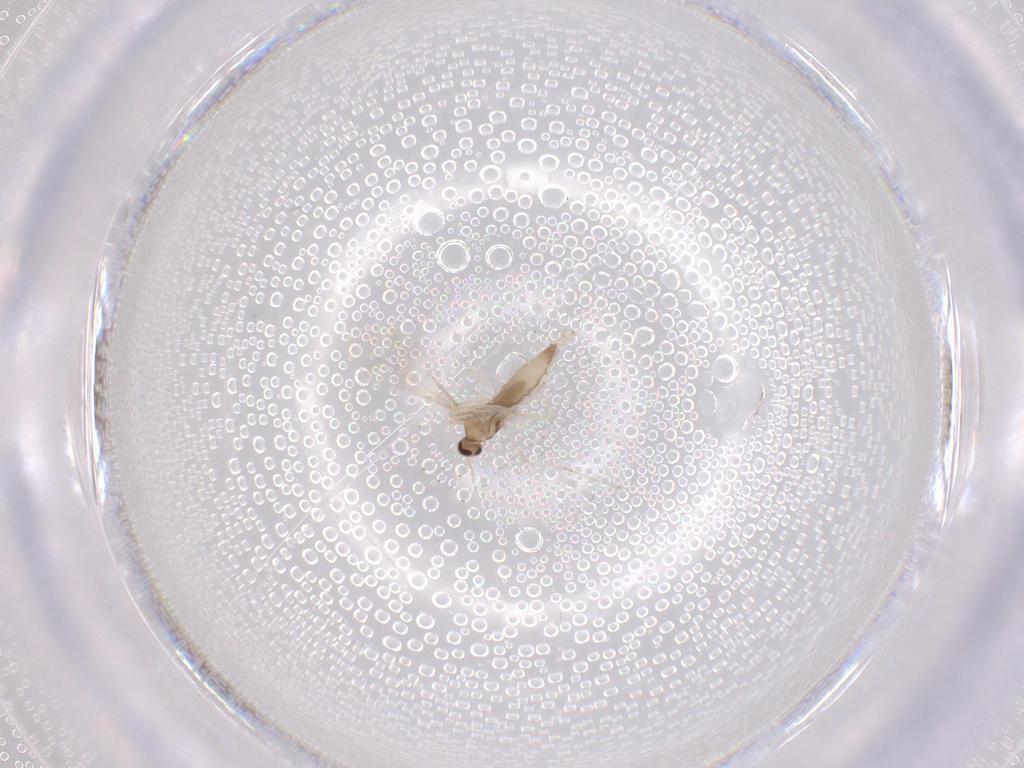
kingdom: Animalia
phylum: Arthropoda
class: Insecta
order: Diptera
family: Cecidomyiidae
